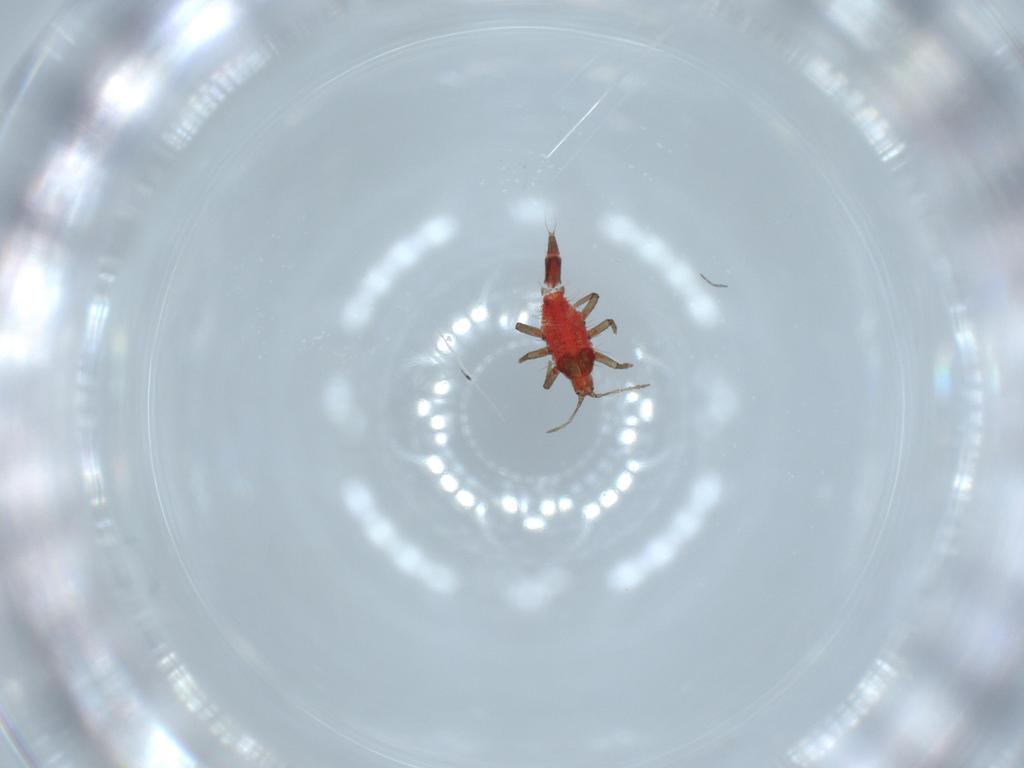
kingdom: Animalia
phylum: Arthropoda
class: Insecta
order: Thysanoptera
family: Phlaeothripidae
